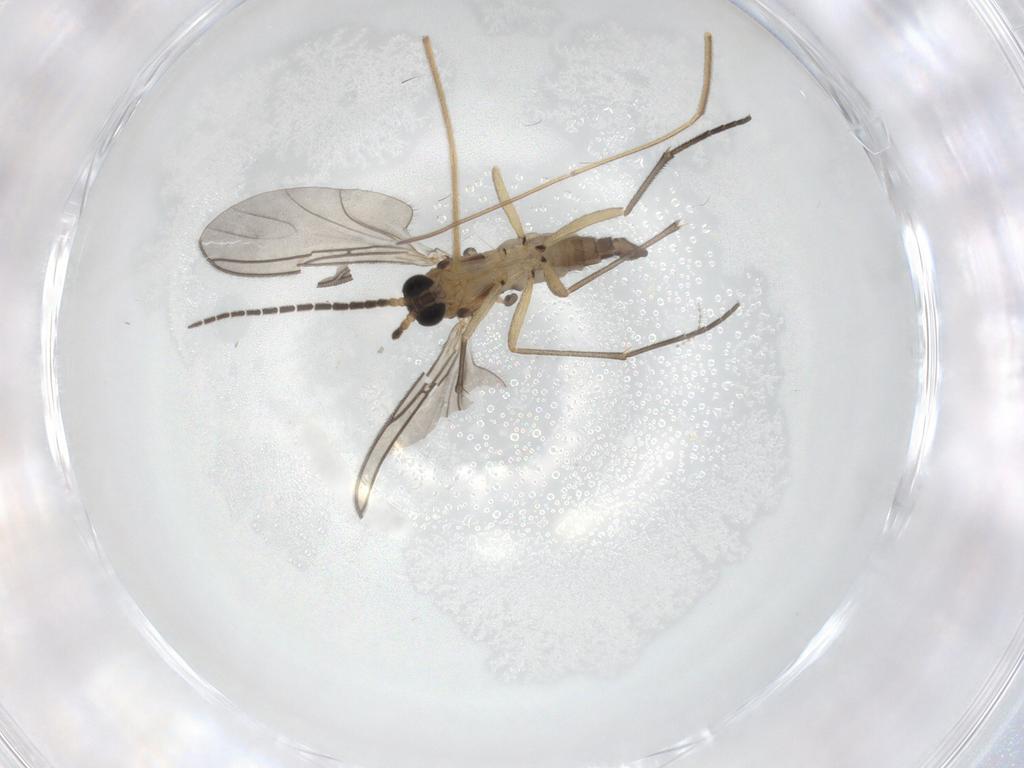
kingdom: Animalia
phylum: Arthropoda
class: Insecta
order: Diptera
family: Sciaridae
